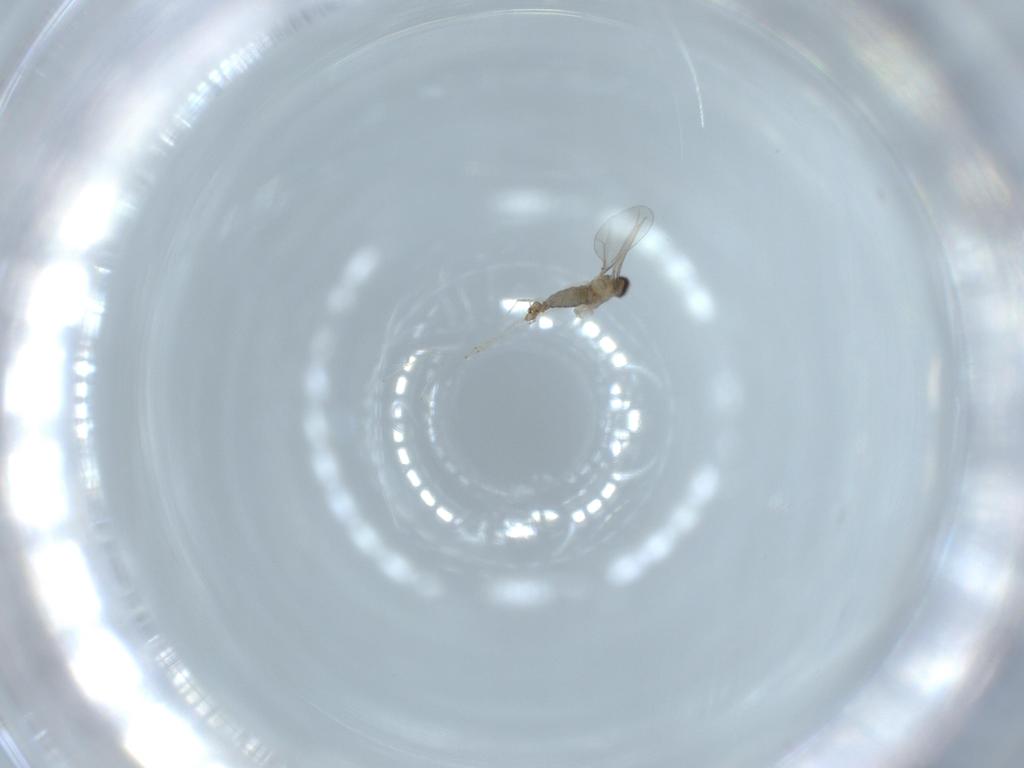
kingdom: Animalia
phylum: Arthropoda
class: Insecta
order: Diptera
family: Cecidomyiidae
